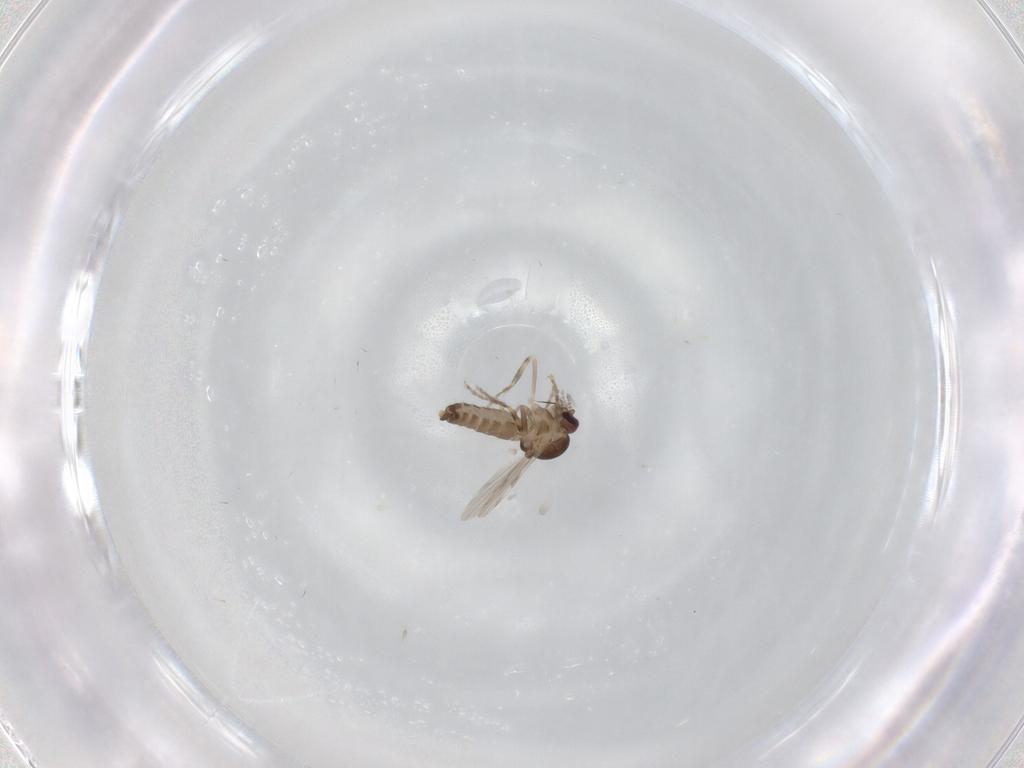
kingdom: Animalia
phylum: Arthropoda
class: Insecta
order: Diptera
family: Ceratopogonidae
